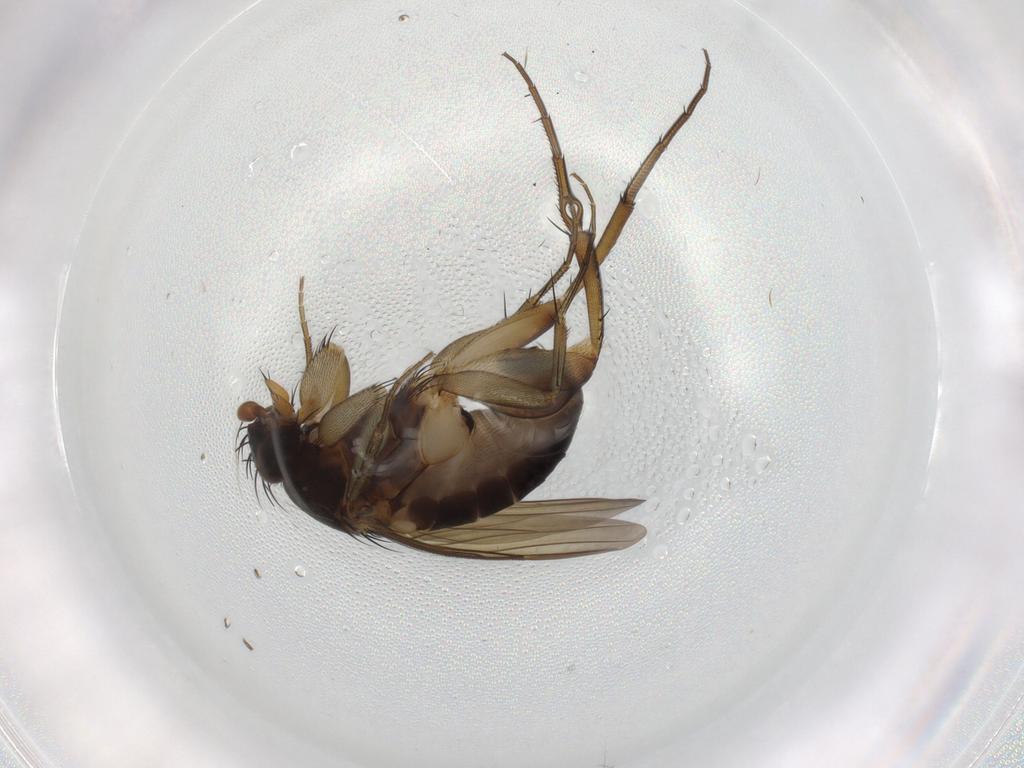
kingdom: Animalia
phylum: Arthropoda
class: Insecta
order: Diptera
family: Phoridae
